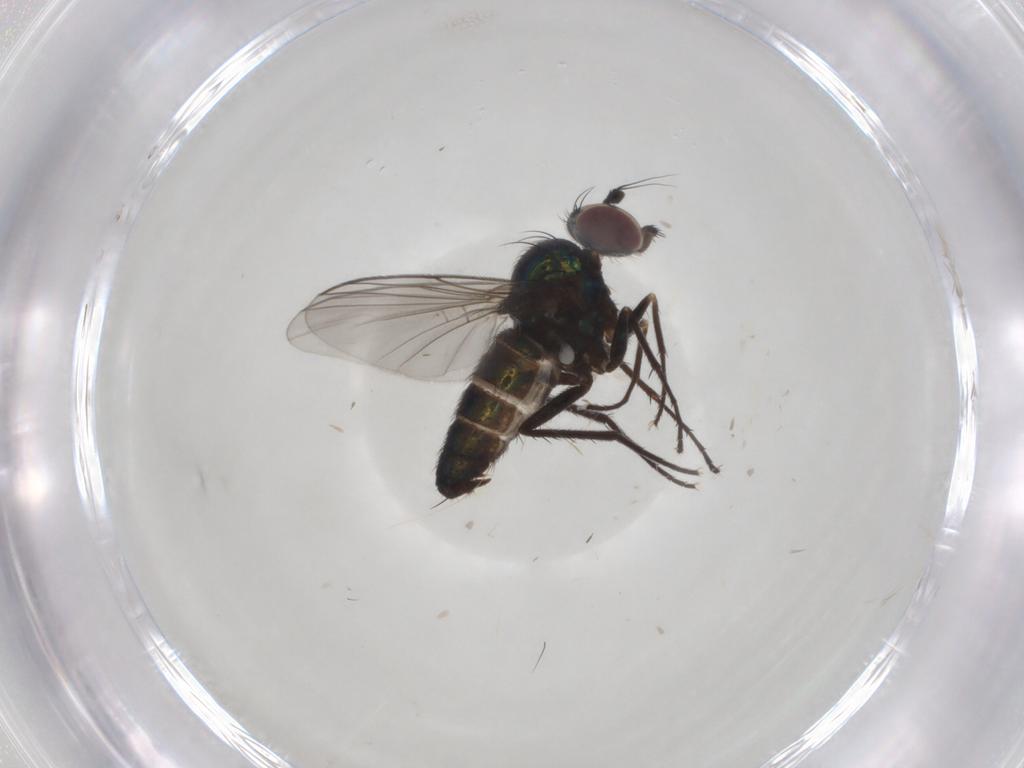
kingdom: Animalia
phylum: Arthropoda
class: Insecta
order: Diptera
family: Dolichopodidae
